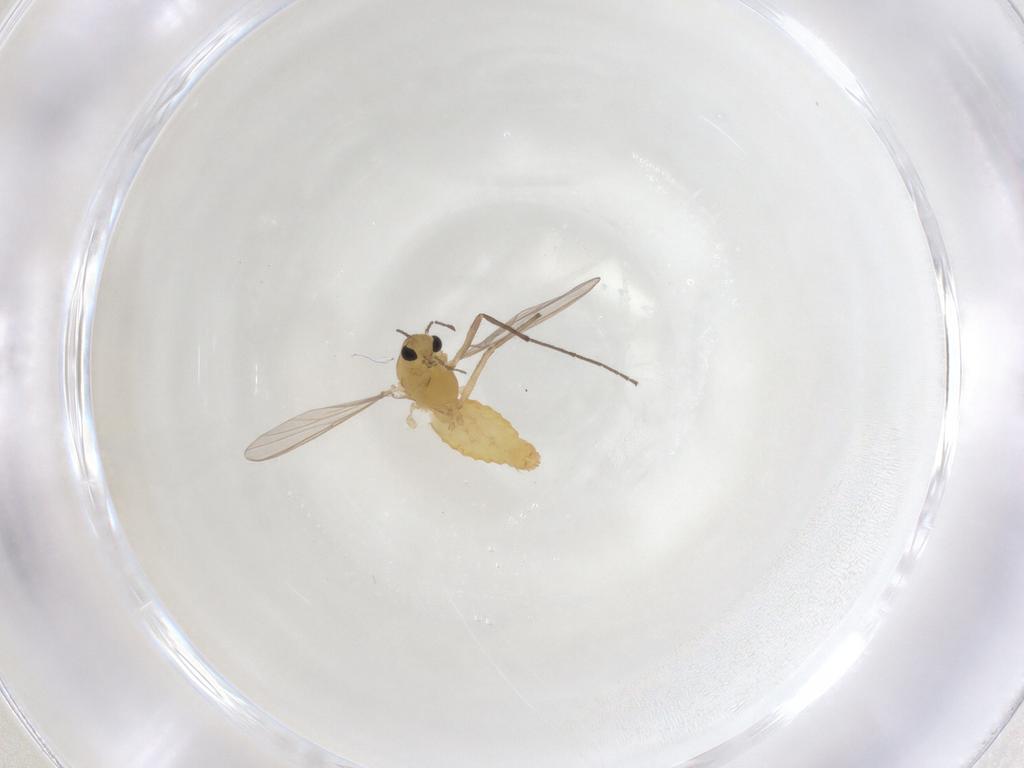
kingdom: Animalia
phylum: Arthropoda
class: Insecta
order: Diptera
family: Chironomidae
